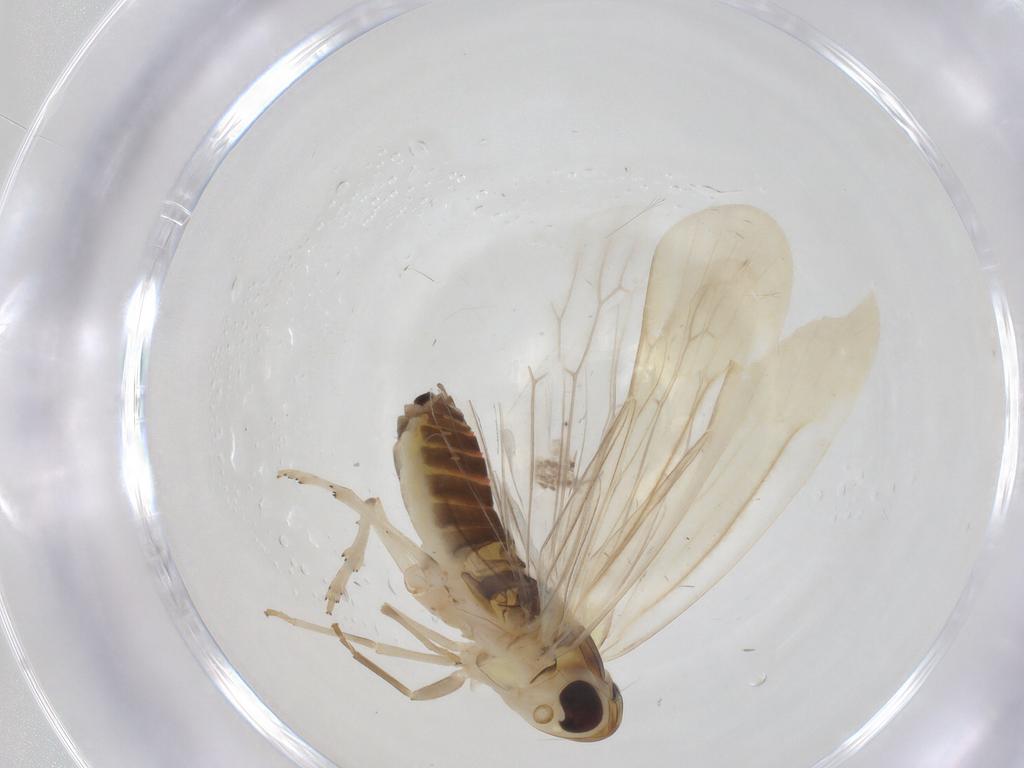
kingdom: Animalia
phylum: Arthropoda
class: Insecta
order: Hemiptera
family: Achilidae
